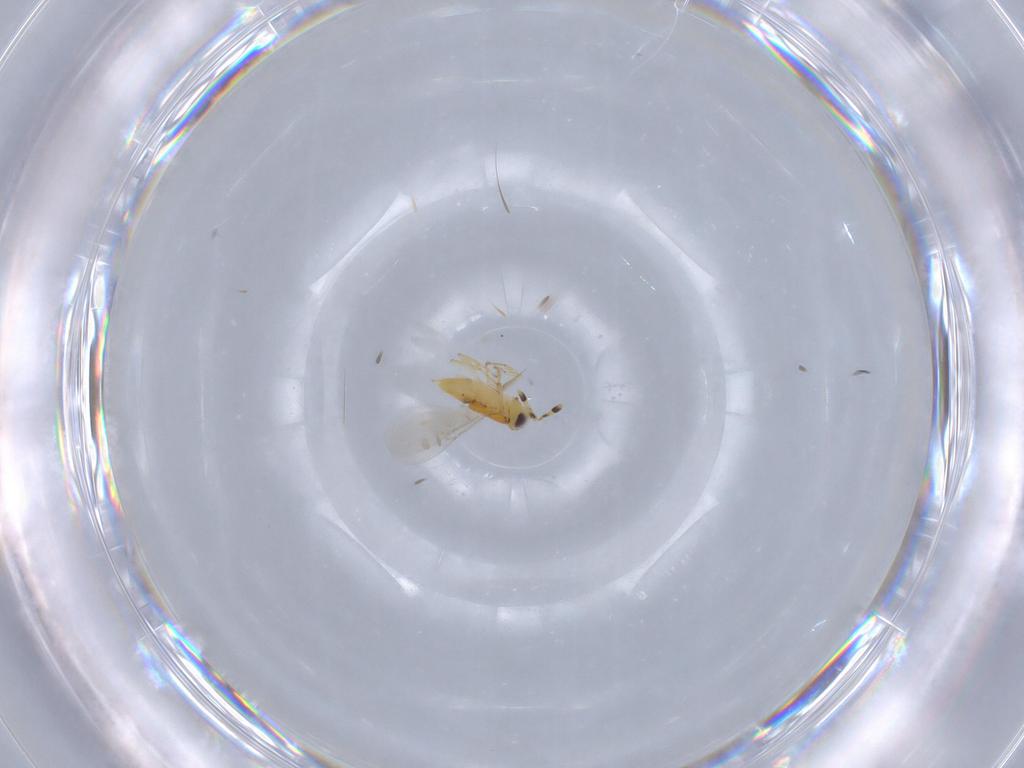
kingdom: Animalia
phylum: Arthropoda
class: Insecta
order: Hymenoptera
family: Encyrtidae
